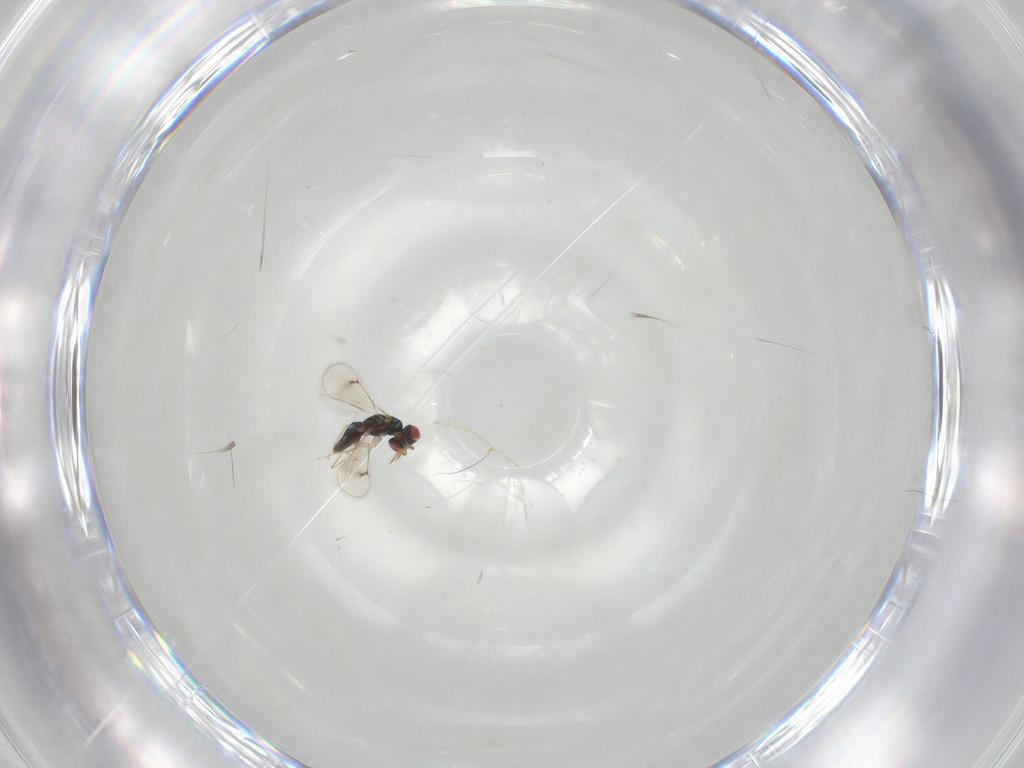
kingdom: Animalia
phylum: Arthropoda
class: Insecta
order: Hymenoptera
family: Eulophidae
